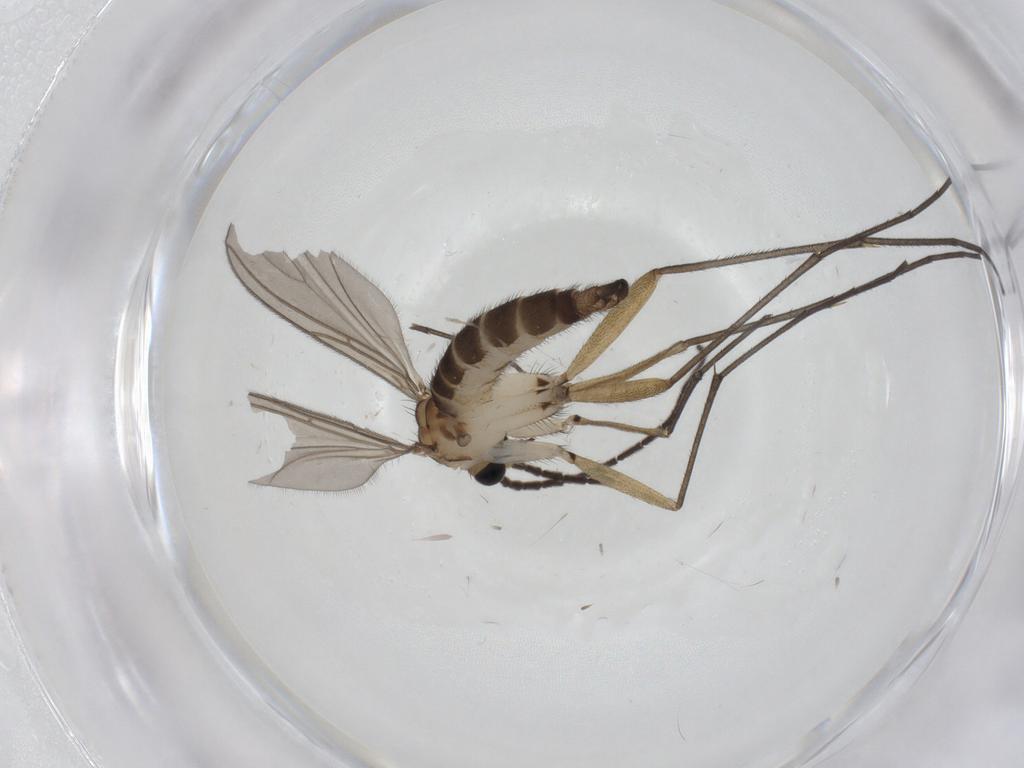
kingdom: Animalia
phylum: Arthropoda
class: Insecta
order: Diptera
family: Sciaridae
